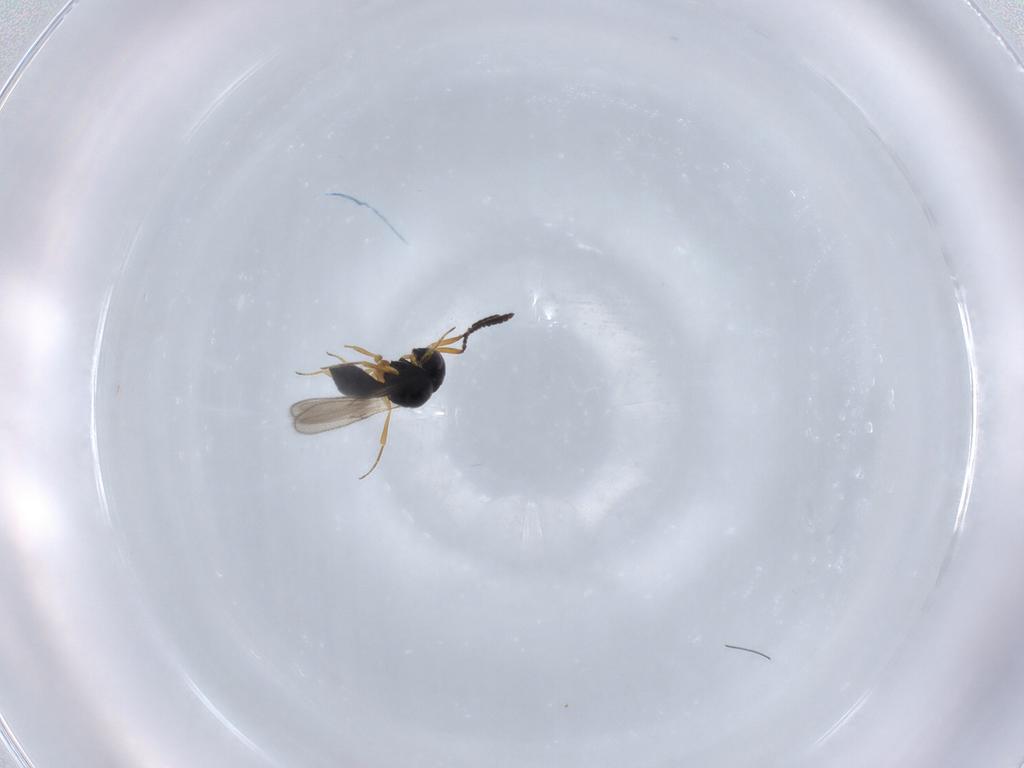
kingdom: Animalia
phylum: Arthropoda
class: Insecta
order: Hymenoptera
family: Scelionidae
